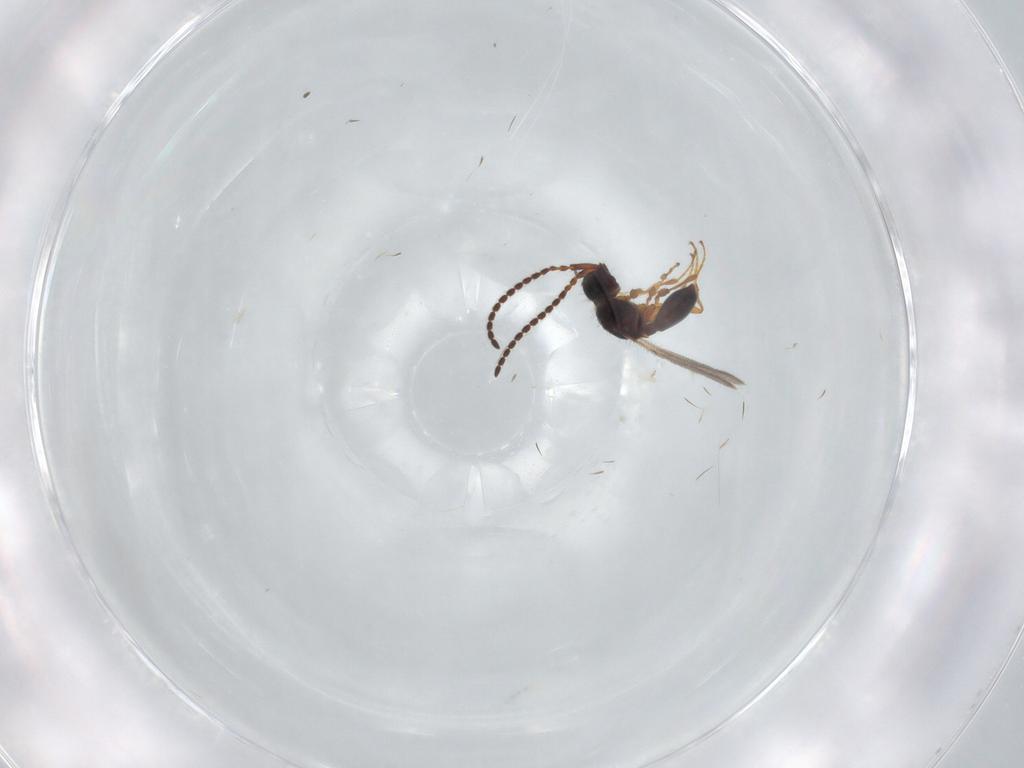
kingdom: Animalia
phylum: Arthropoda
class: Insecta
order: Hymenoptera
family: Diapriidae
